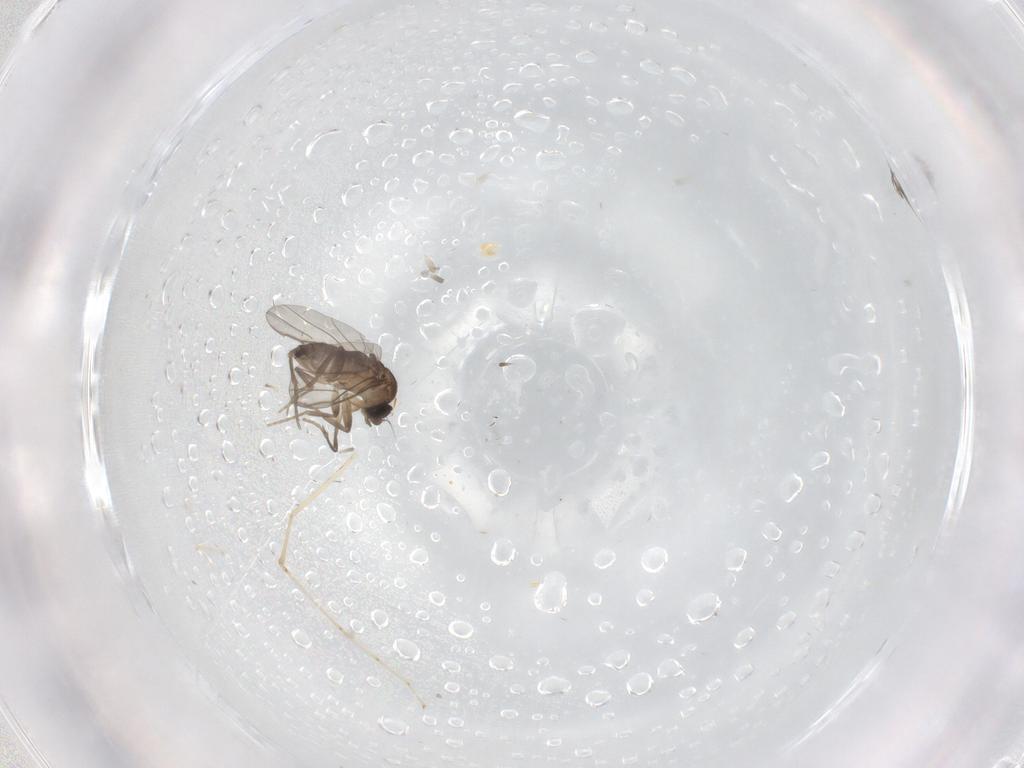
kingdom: Animalia
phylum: Arthropoda
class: Insecta
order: Diptera
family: Cecidomyiidae
